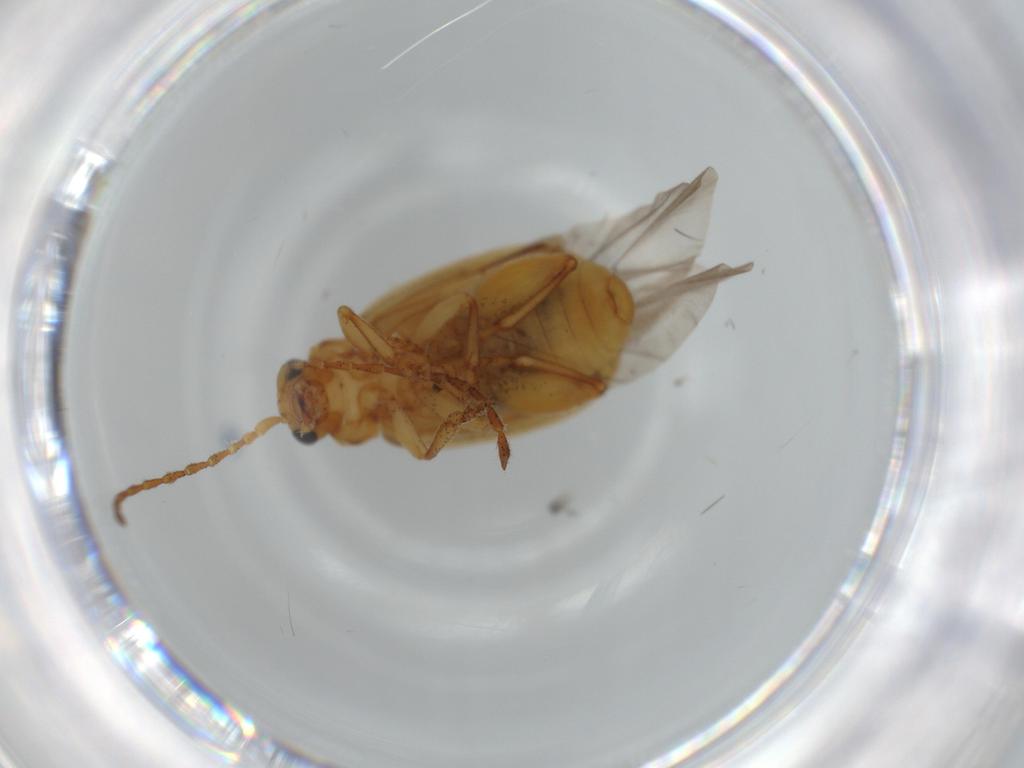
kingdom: Animalia
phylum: Arthropoda
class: Insecta
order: Coleoptera
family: Chrysomelidae
